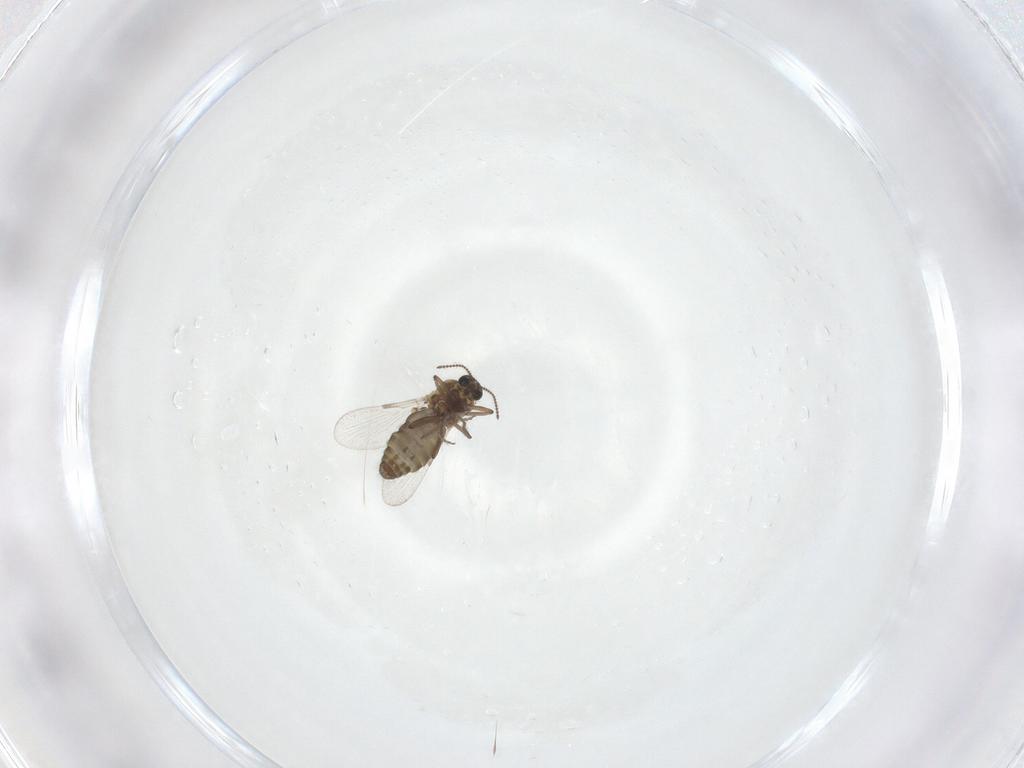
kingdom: Animalia
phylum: Arthropoda
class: Insecta
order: Diptera
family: Ceratopogonidae
